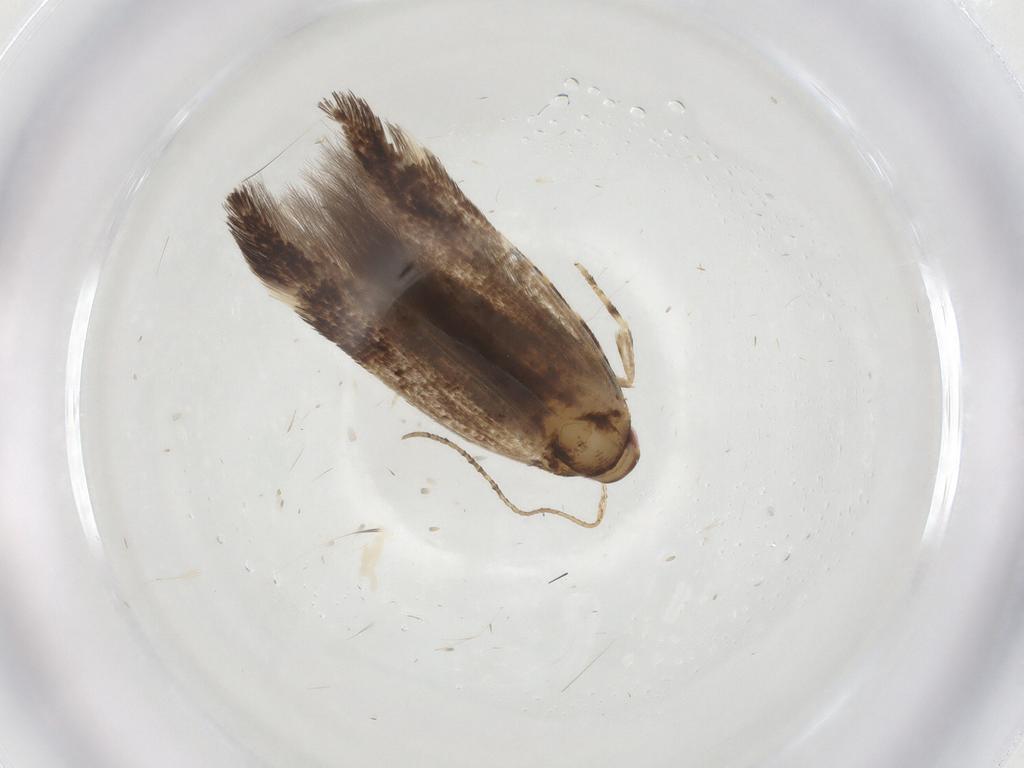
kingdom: Animalia
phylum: Arthropoda
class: Insecta
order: Lepidoptera
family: Cosmopterigidae
